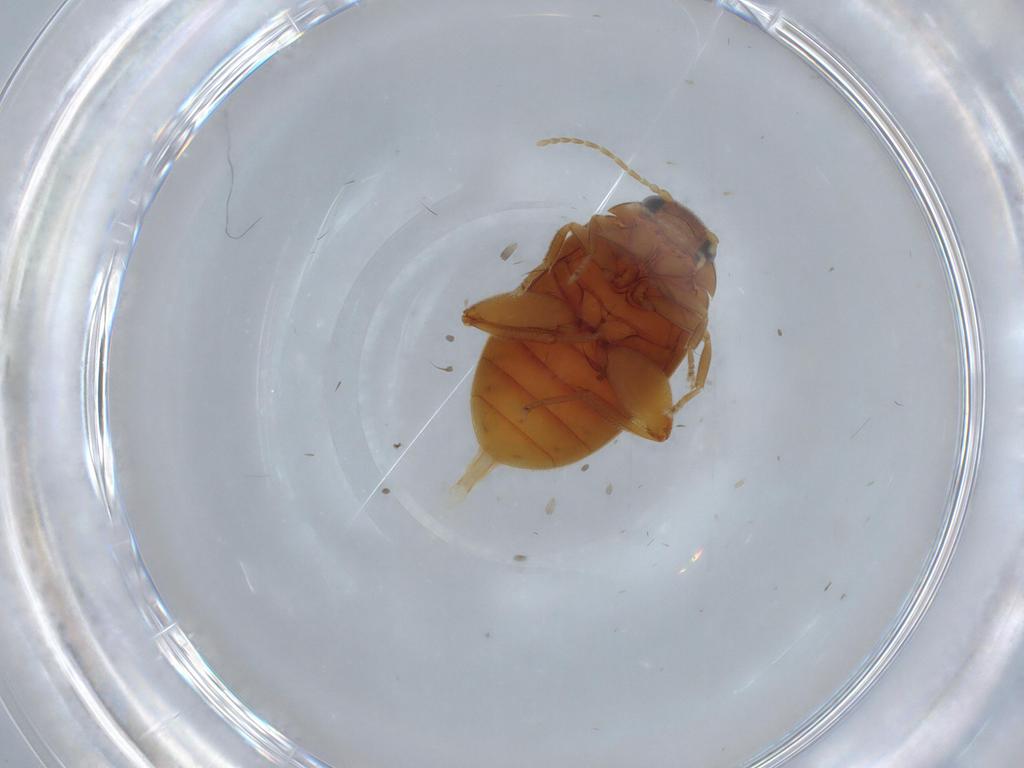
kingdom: Animalia
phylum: Arthropoda
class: Insecta
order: Coleoptera
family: Scirtidae
